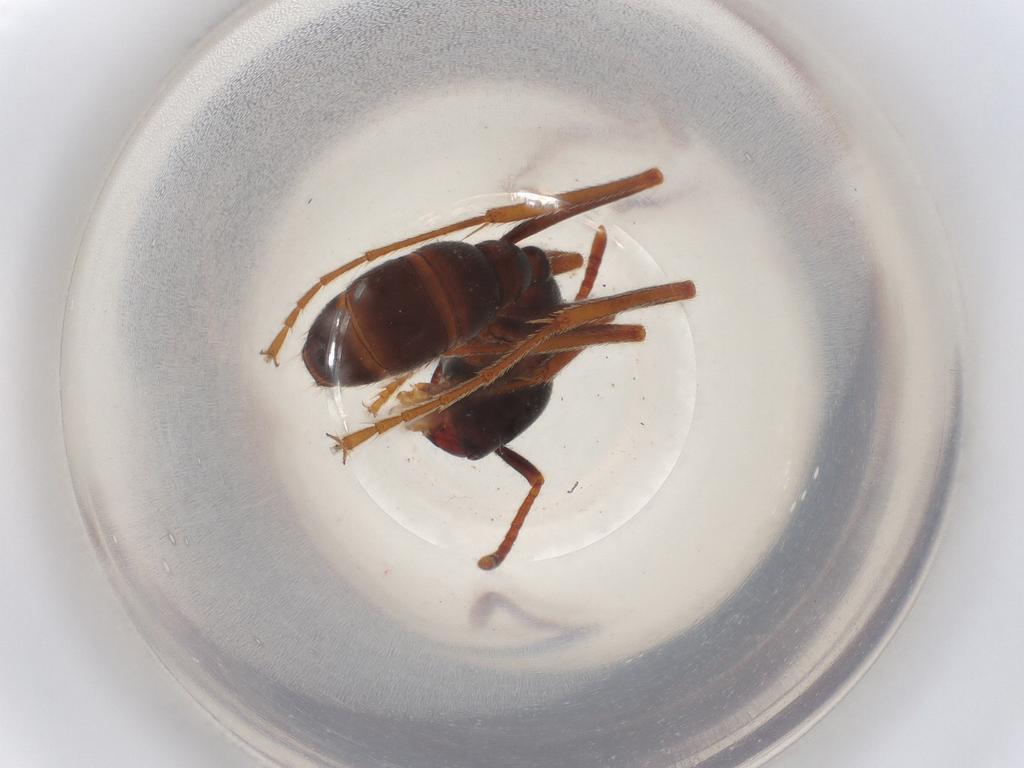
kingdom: Animalia
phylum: Arthropoda
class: Insecta
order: Hymenoptera
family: Formicidae
